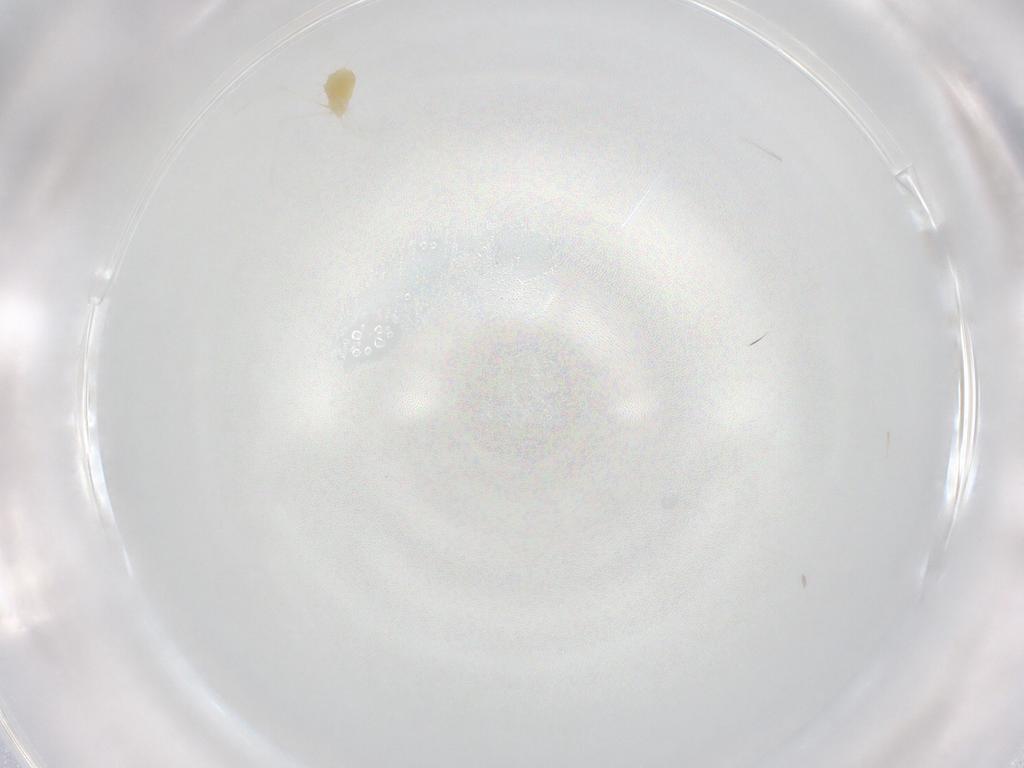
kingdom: Animalia
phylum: Arthropoda
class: Arachnida
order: Trombidiformes
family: Tetranychidae
